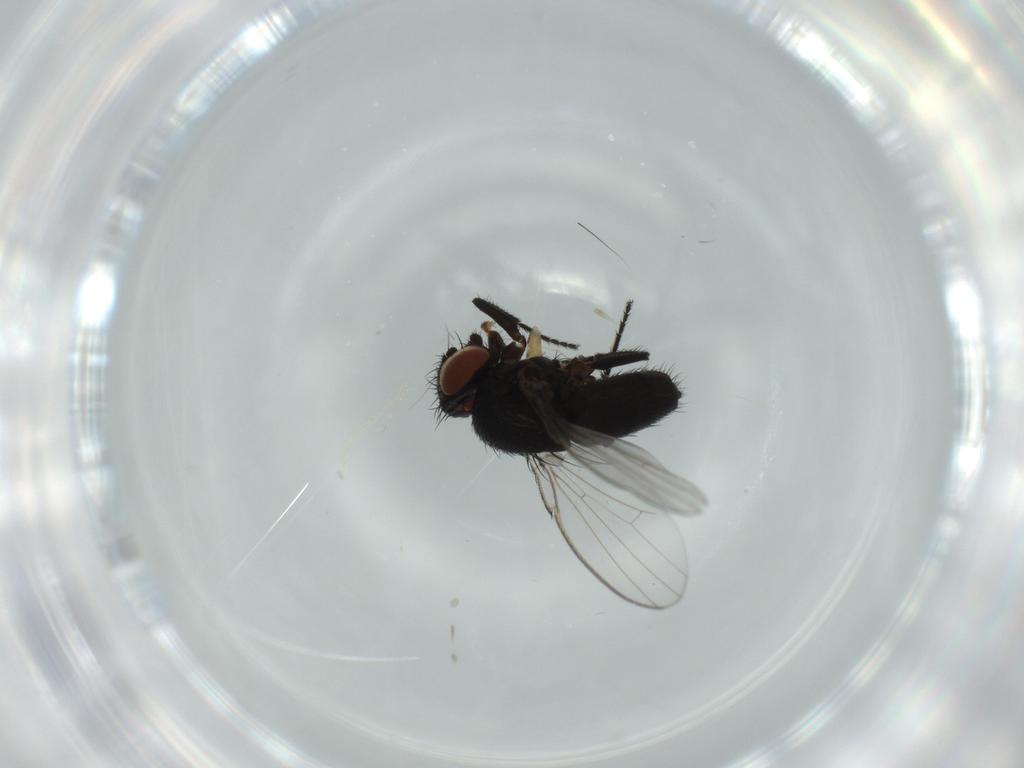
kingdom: Animalia
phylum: Arthropoda
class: Insecta
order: Diptera
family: Milichiidae
